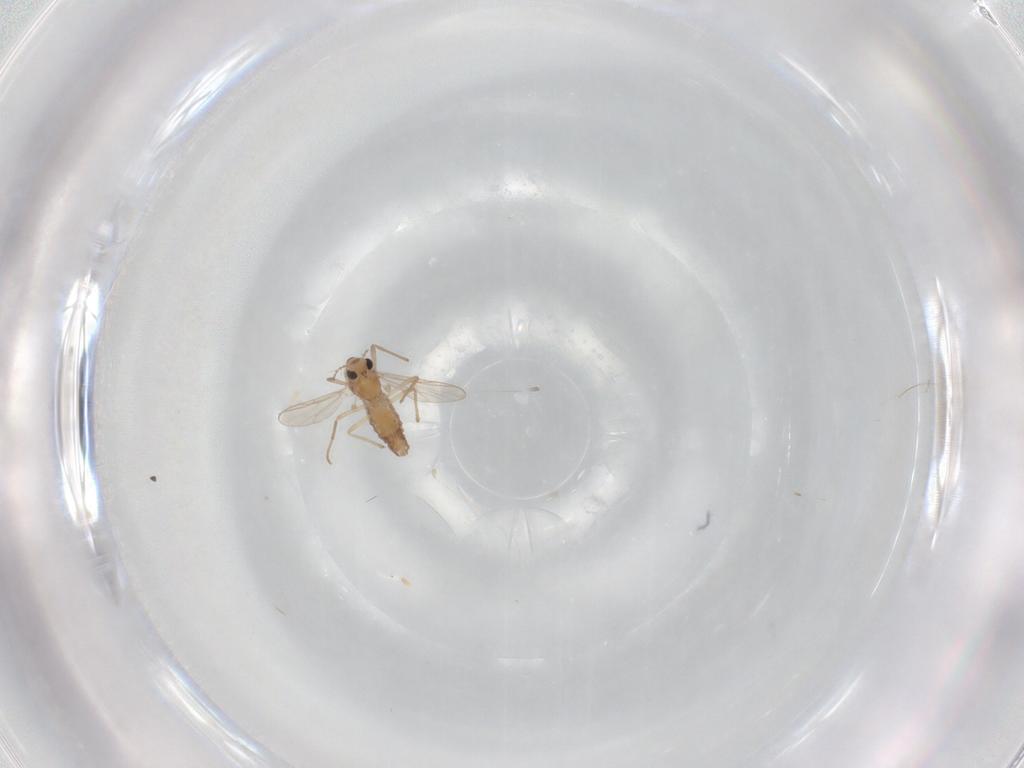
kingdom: Animalia
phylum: Arthropoda
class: Insecta
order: Diptera
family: Chironomidae
